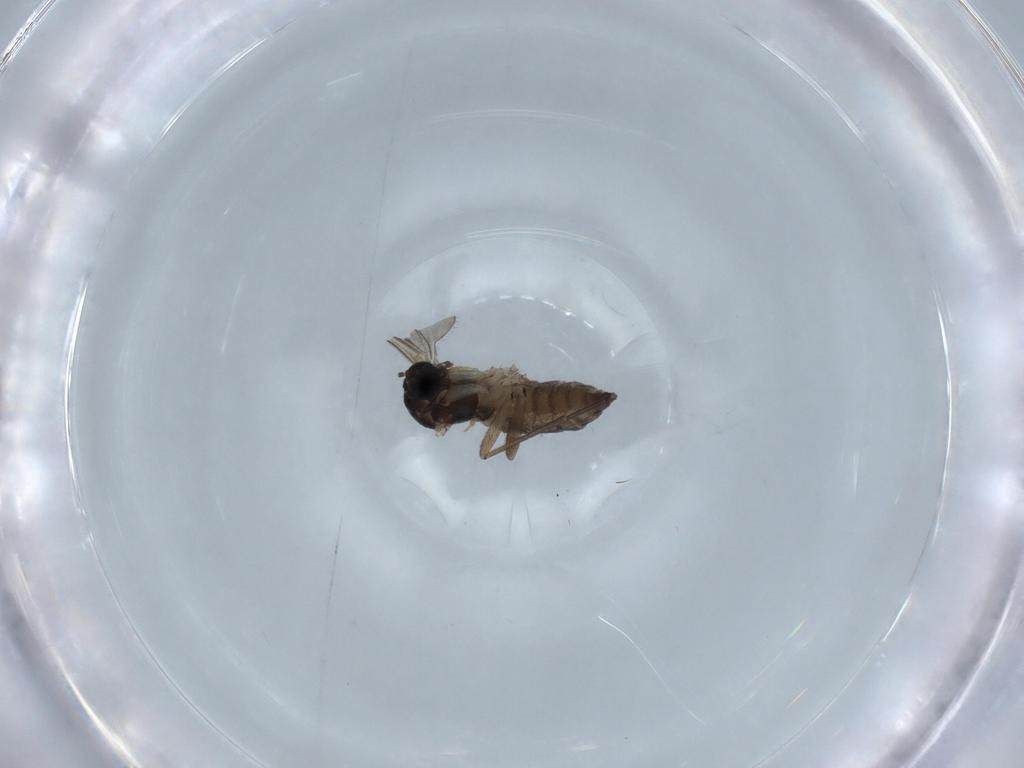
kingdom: Animalia
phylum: Arthropoda
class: Insecta
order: Diptera
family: Sciaridae
